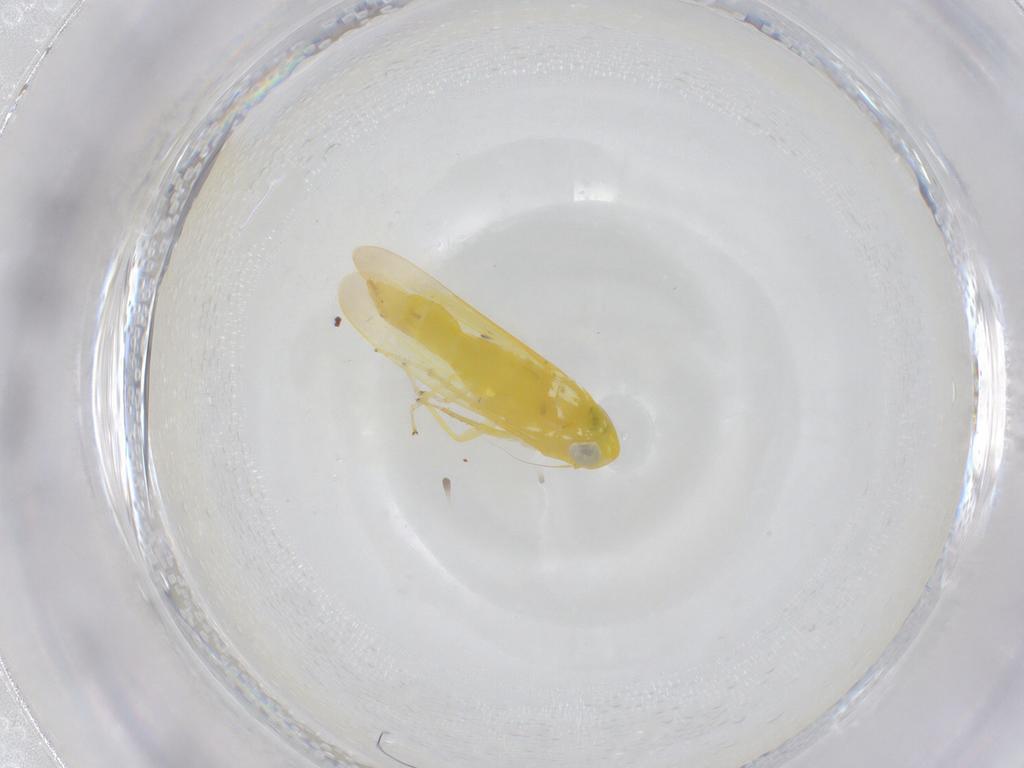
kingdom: Animalia
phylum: Arthropoda
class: Insecta
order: Hemiptera
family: Cicadellidae
